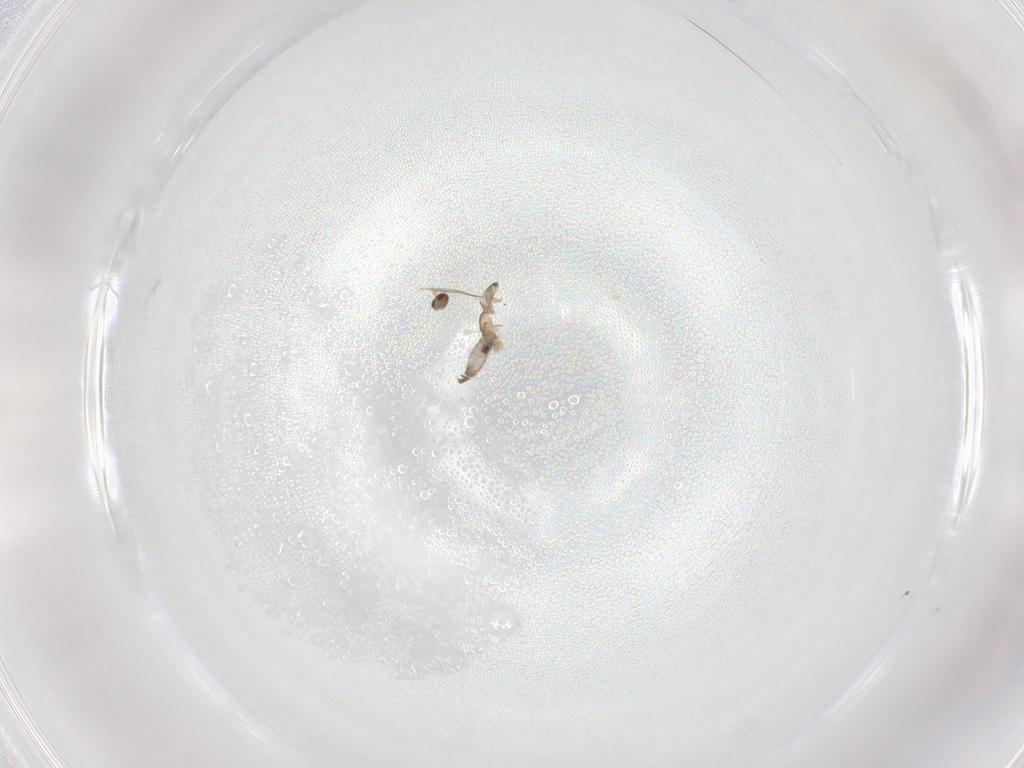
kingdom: Animalia
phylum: Arthropoda
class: Insecta
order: Diptera
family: Cecidomyiidae
